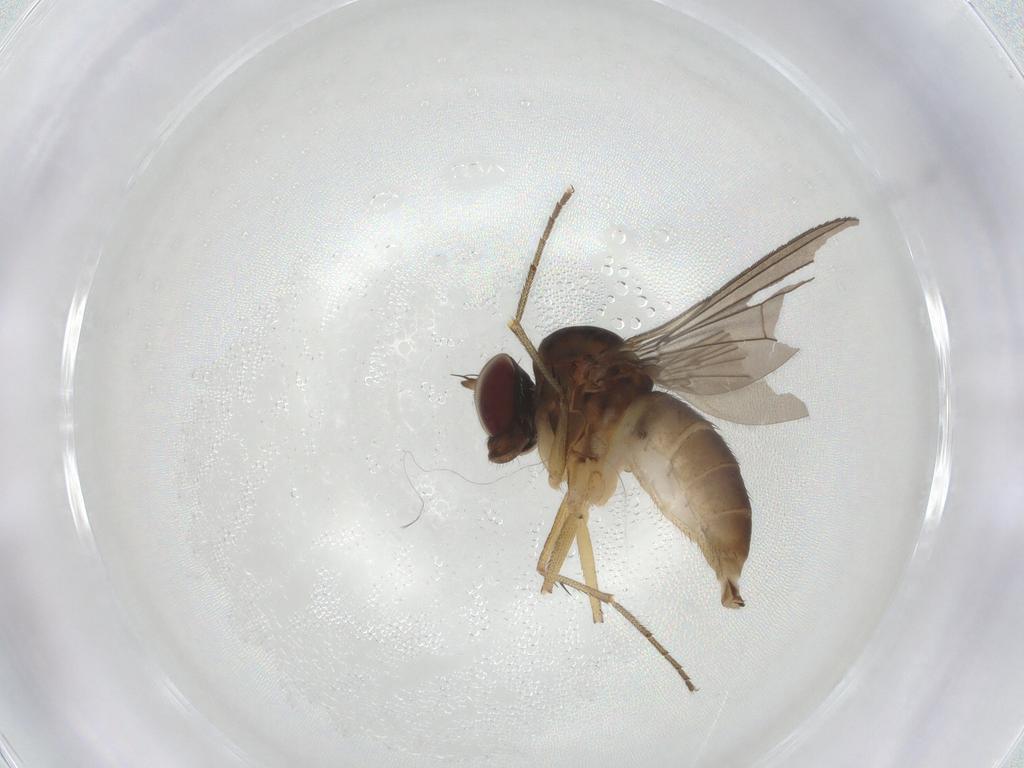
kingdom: Animalia
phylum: Arthropoda
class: Insecta
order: Diptera
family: Dolichopodidae
